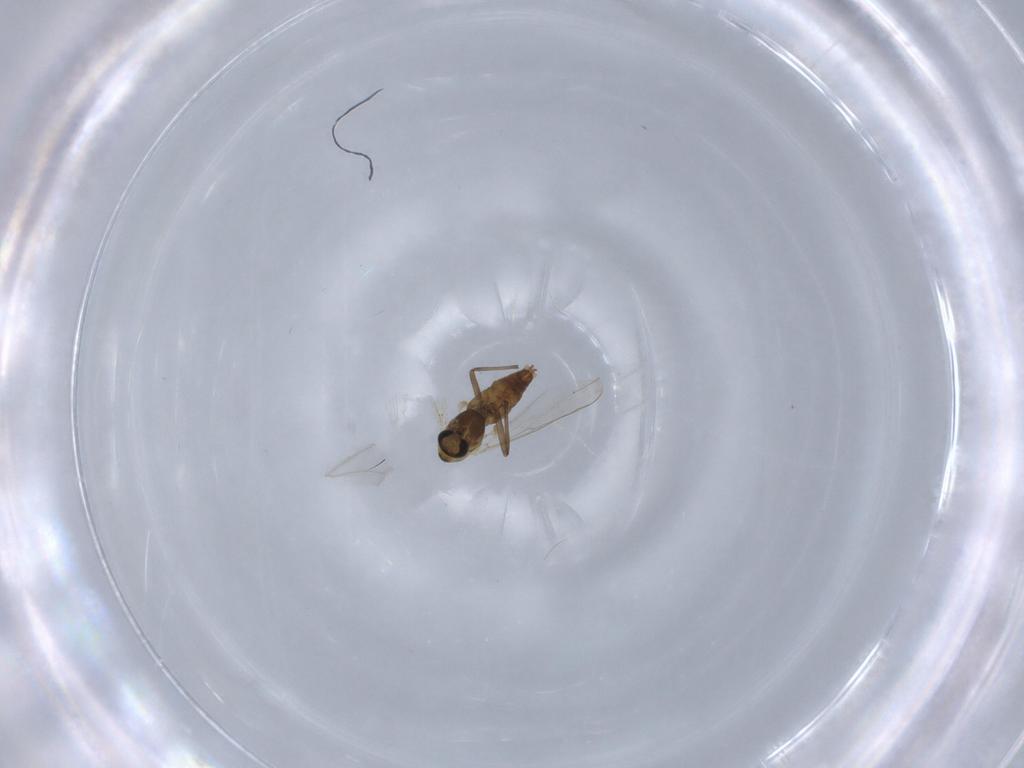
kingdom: Animalia
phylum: Arthropoda
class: Insecta
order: Diptera
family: Chironomidae
